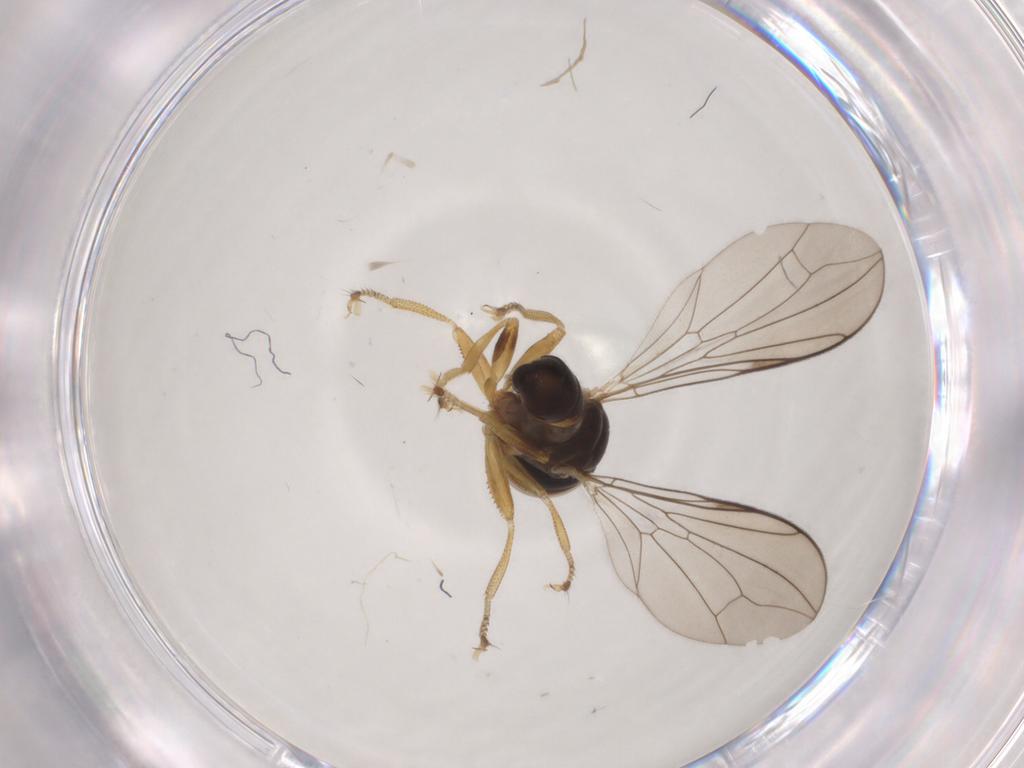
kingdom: Animalia
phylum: Arthropoda
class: Insecta
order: Diptera
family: Pipunculidae
